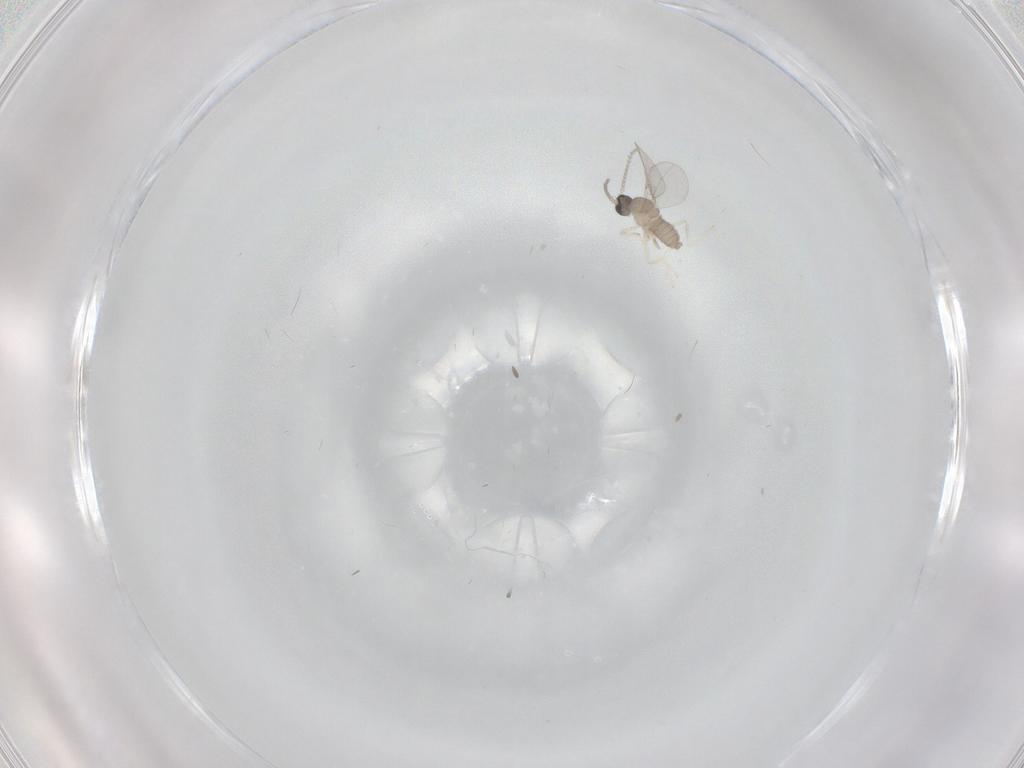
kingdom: Animalia
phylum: Arthropoda
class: Insecta
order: Diptera
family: Cecidomyiidae
